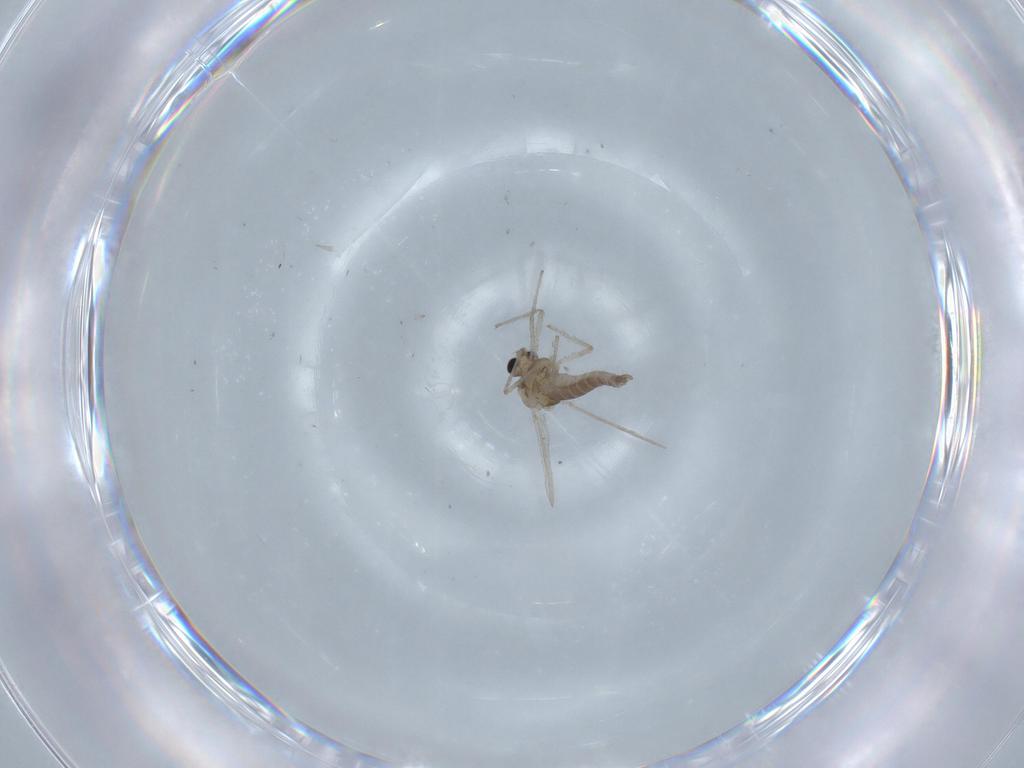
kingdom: Animalia
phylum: Arthropoda
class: Insecta
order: Diptera
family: Chironomidae
